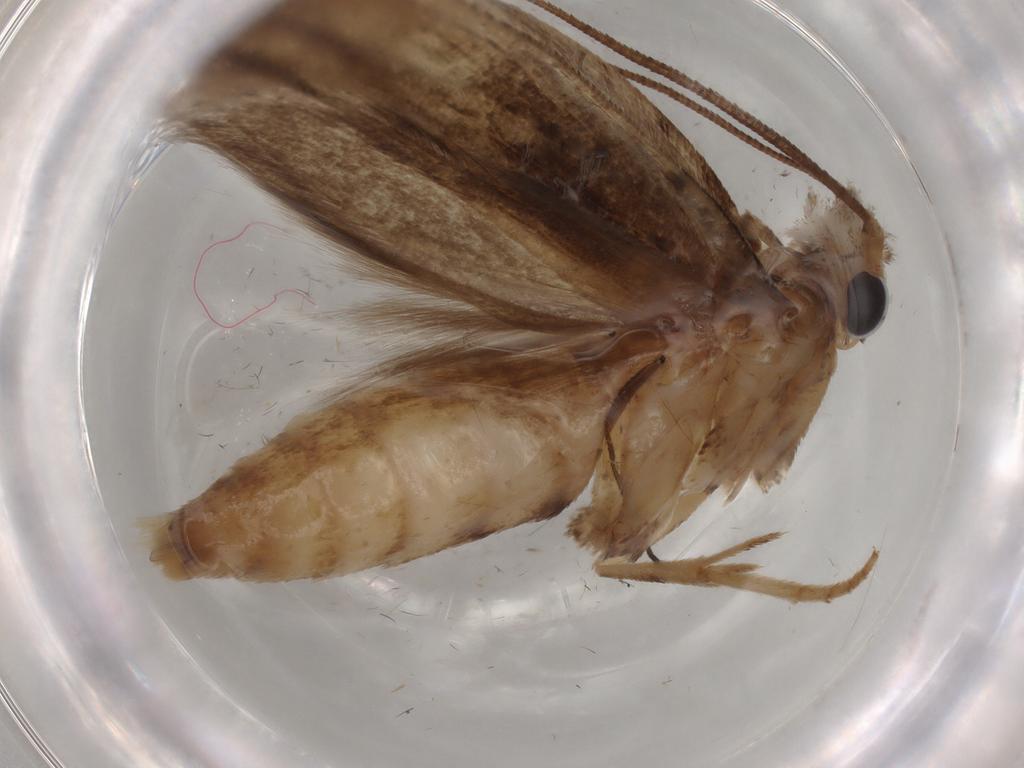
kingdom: Animalia
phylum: Arthropoda
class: Insecta
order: Lepidoptera
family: Yponomeutidae
